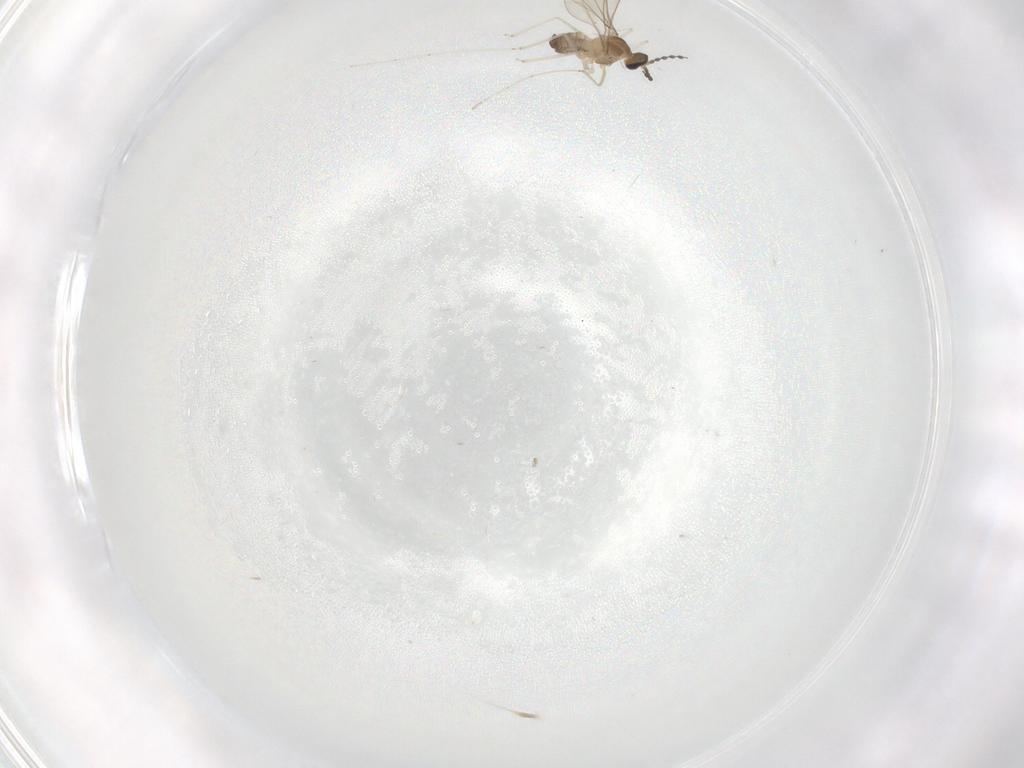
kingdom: Animalia
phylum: Arthropoda
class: Insecta
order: Diptera
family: Cecidomyiidae
